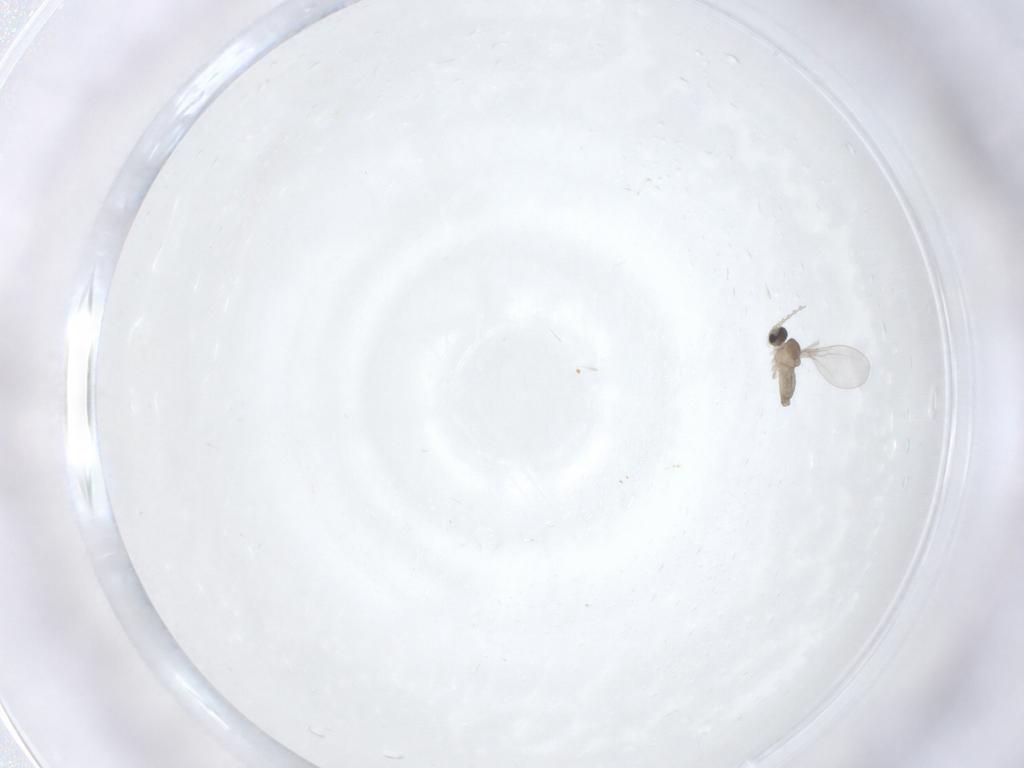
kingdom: Animalia
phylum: Arthropoda
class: Insecta
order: Diptera
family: Cecidomyiidae
